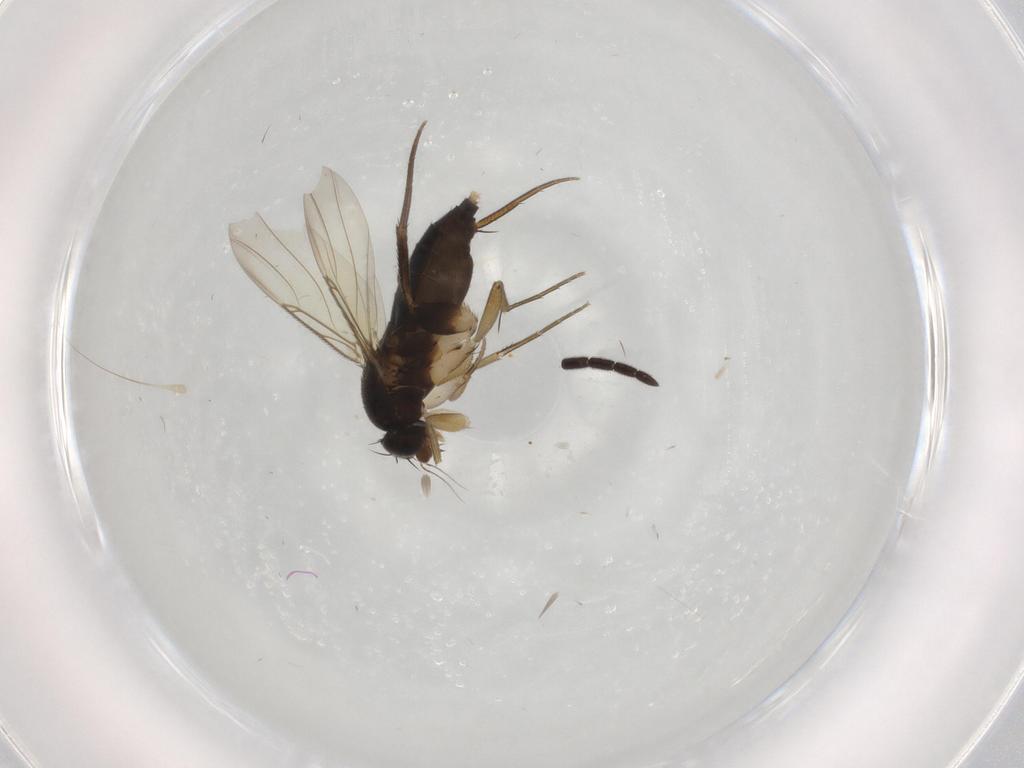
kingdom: Animalia
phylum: Arthropoda
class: Insecta
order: Diptera
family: Phoridae
